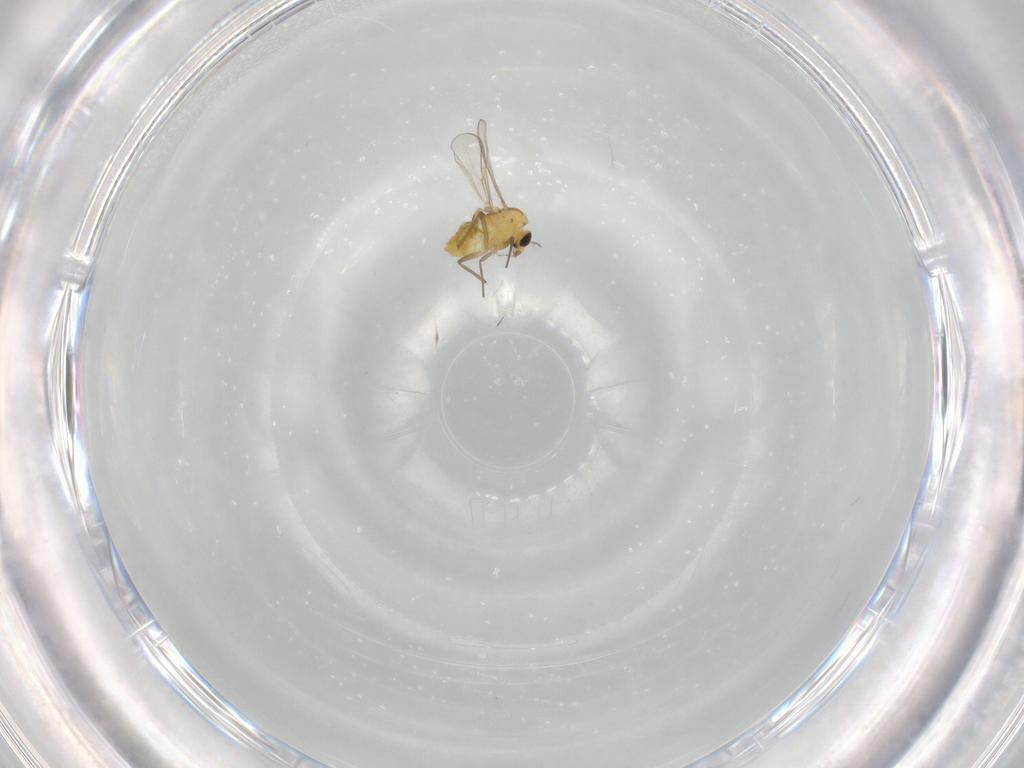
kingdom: Animalia
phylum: Arthropoda
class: Insecta
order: Diptera
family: Chironomidae
